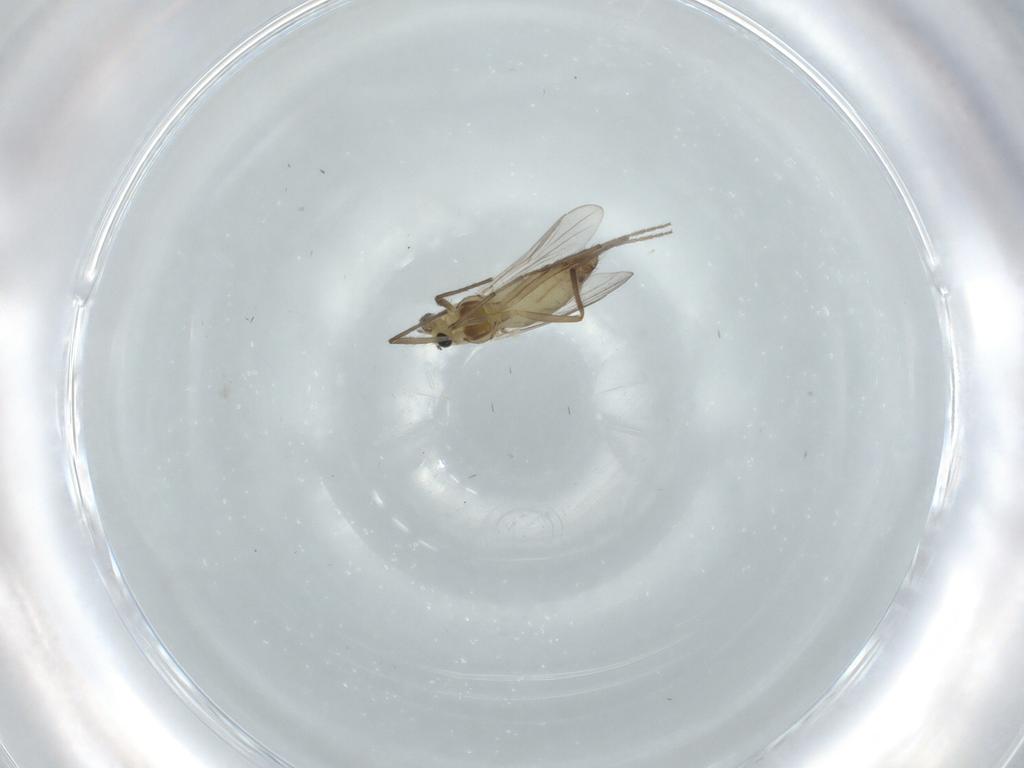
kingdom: Animalia
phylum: Arthropoda
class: Insecta
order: Diptera
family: Chironomidae
